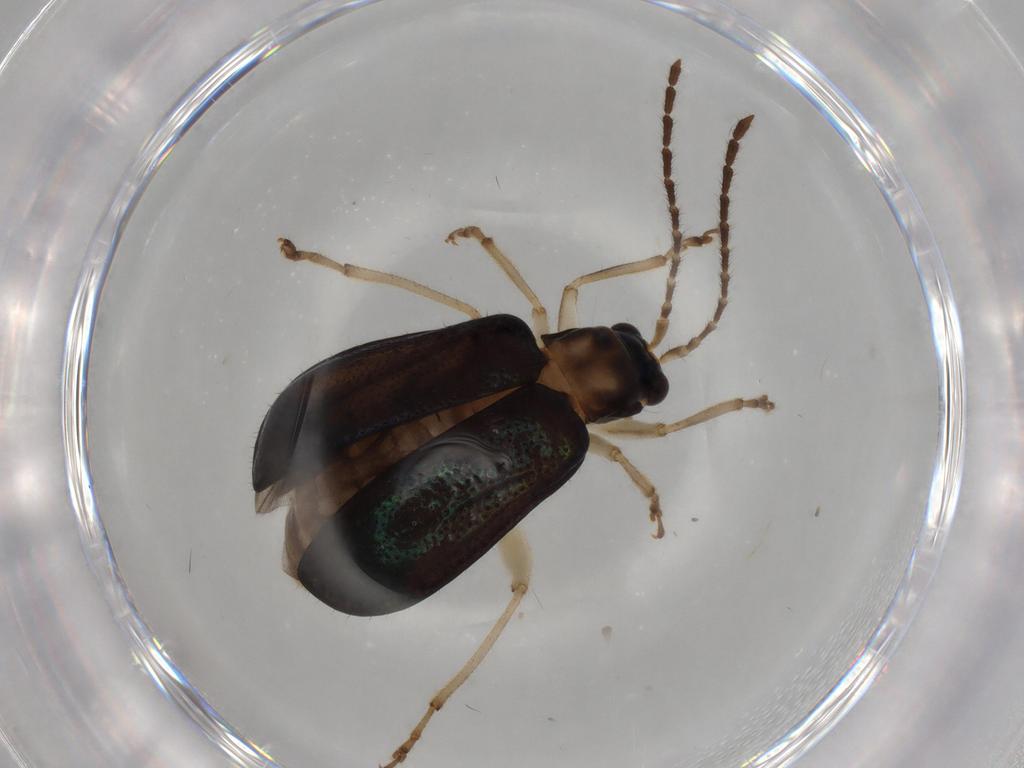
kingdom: Animalia
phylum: Arthropoda
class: Insecta
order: Coleoptera
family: Chrysomelidae
